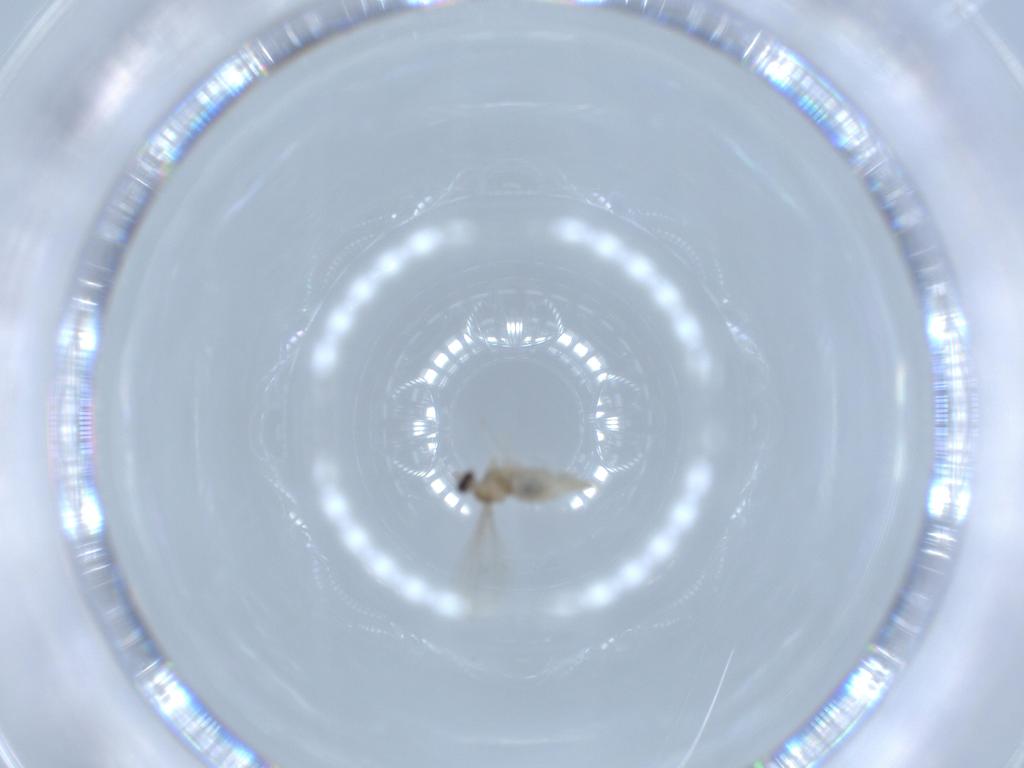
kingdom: Animalia
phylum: Arthropoda
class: Insecta
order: Diptera
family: Cecidomyiidae
